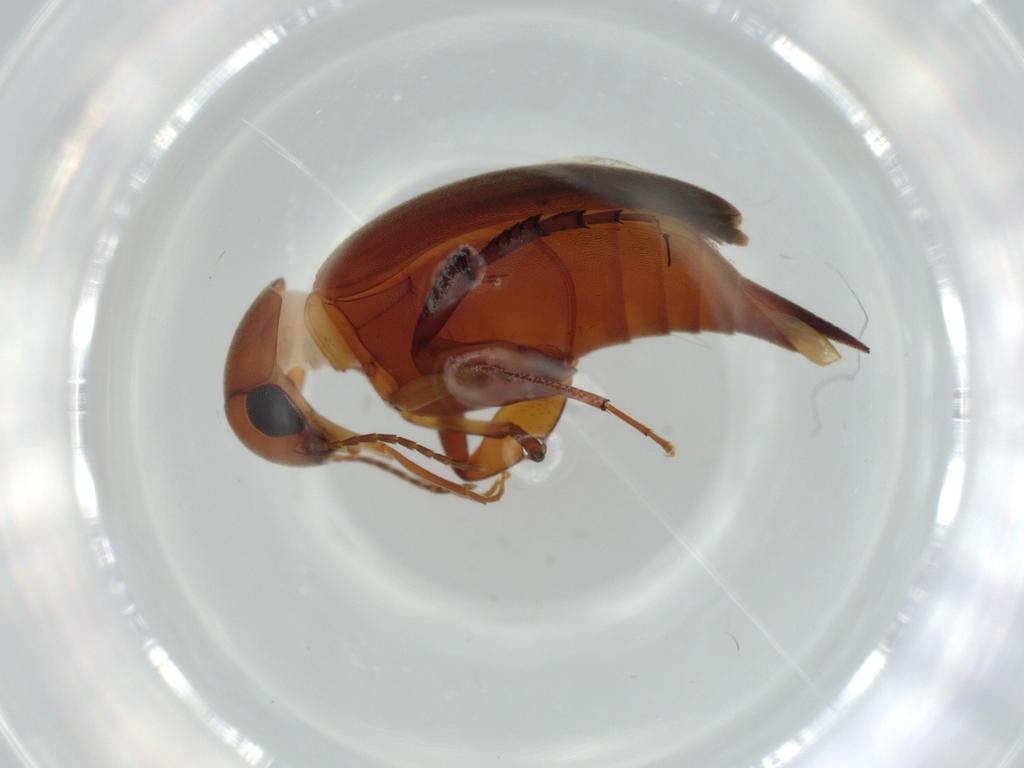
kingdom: Animalia
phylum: Arthropoda
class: Insecta
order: Coleoptera
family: Mordellidae
